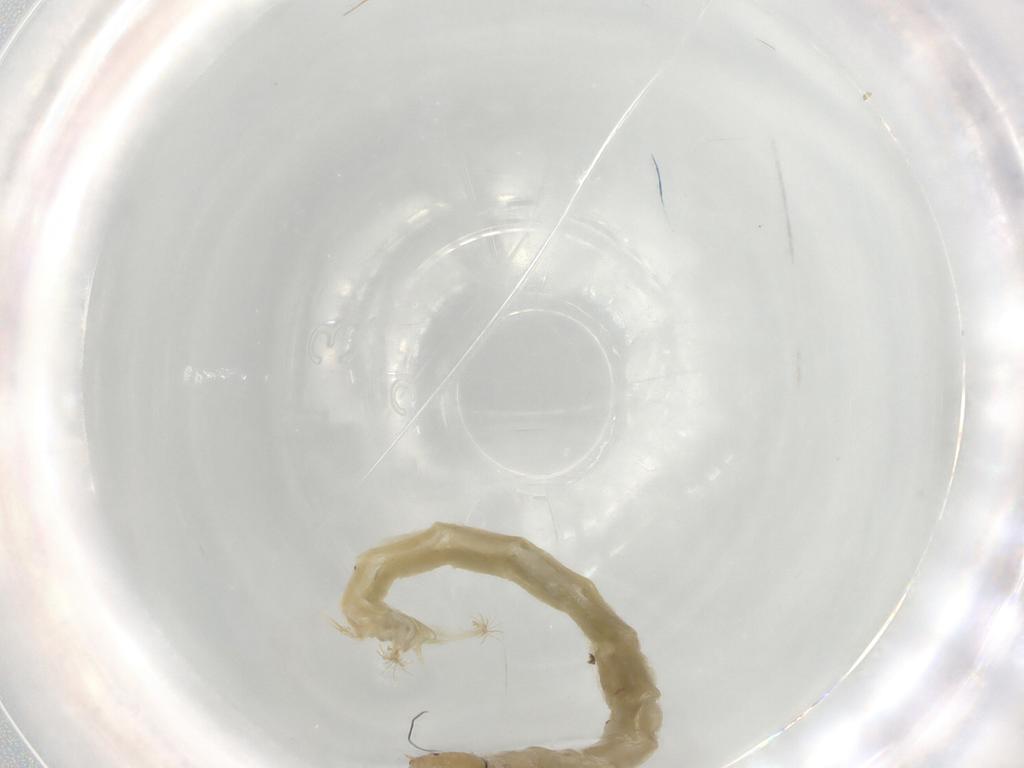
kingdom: Animalia
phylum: Arthropoda
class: Insecta
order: Diptera
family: Chironomidae
